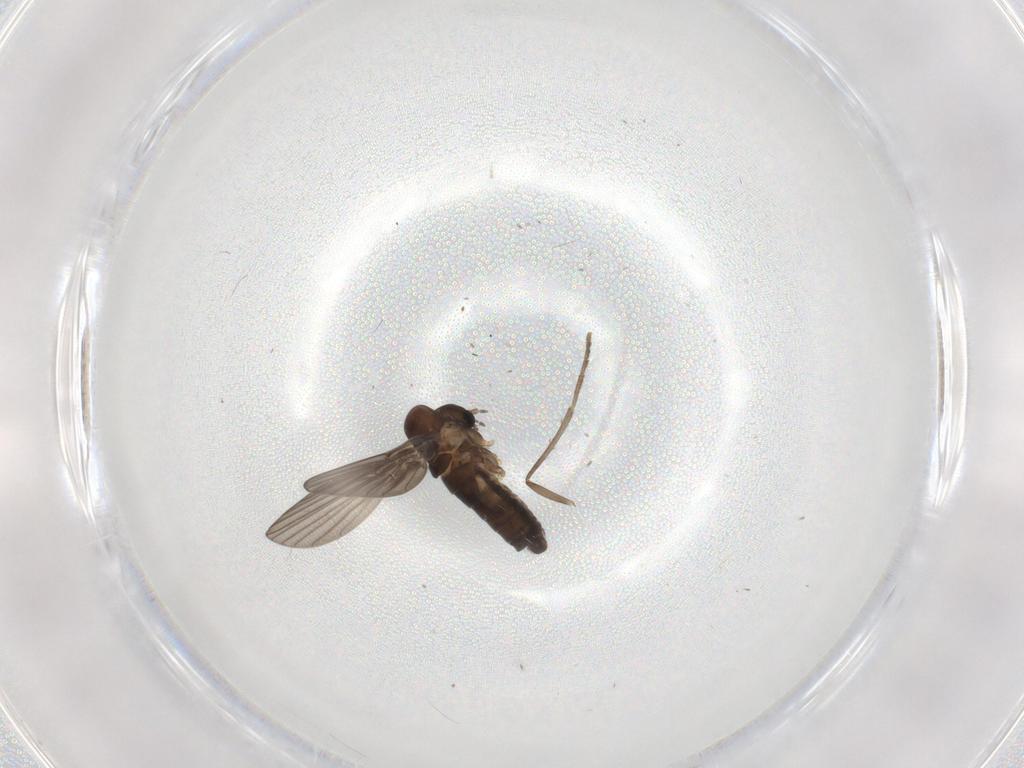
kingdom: Animalia
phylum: Arthropoda
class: Insecta
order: Diptera
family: Cecidomyiidae
